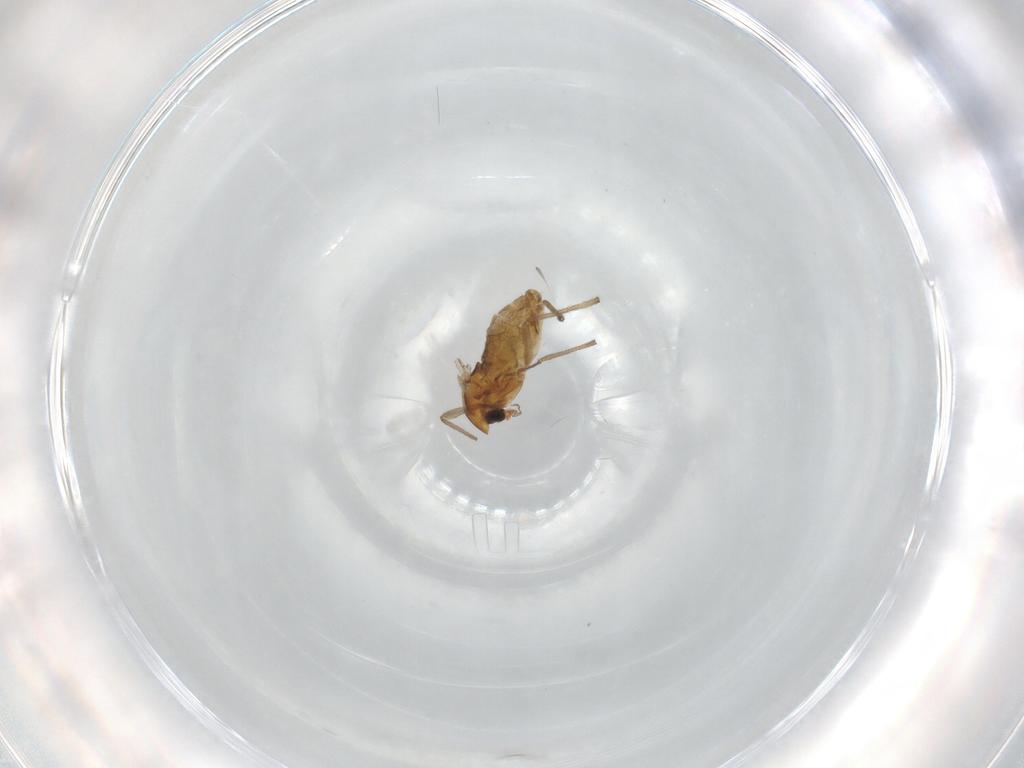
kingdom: Animalia
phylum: Arthropoda
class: Insecta
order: Diptera
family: Chironomidae
